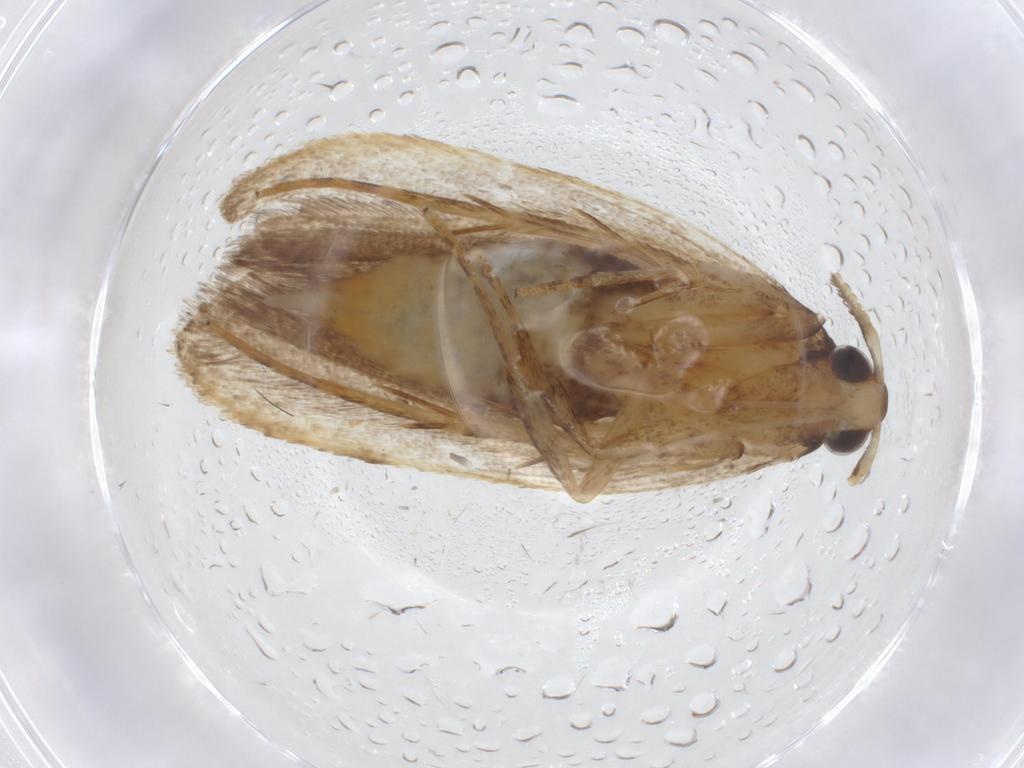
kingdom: Animalia
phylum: Arthropoda
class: Insecta
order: Lepidoptera
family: Lecithoceridae
